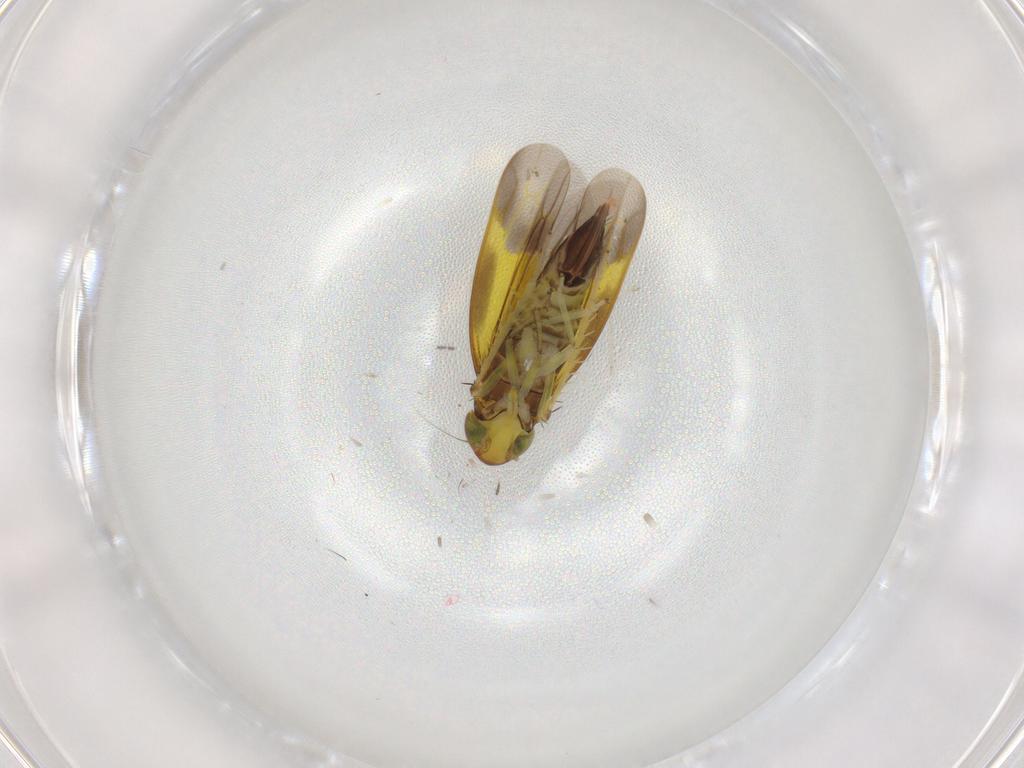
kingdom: Animalia
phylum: Arthropoda
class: Insecta
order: Hemiptera
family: Cicadellidae
